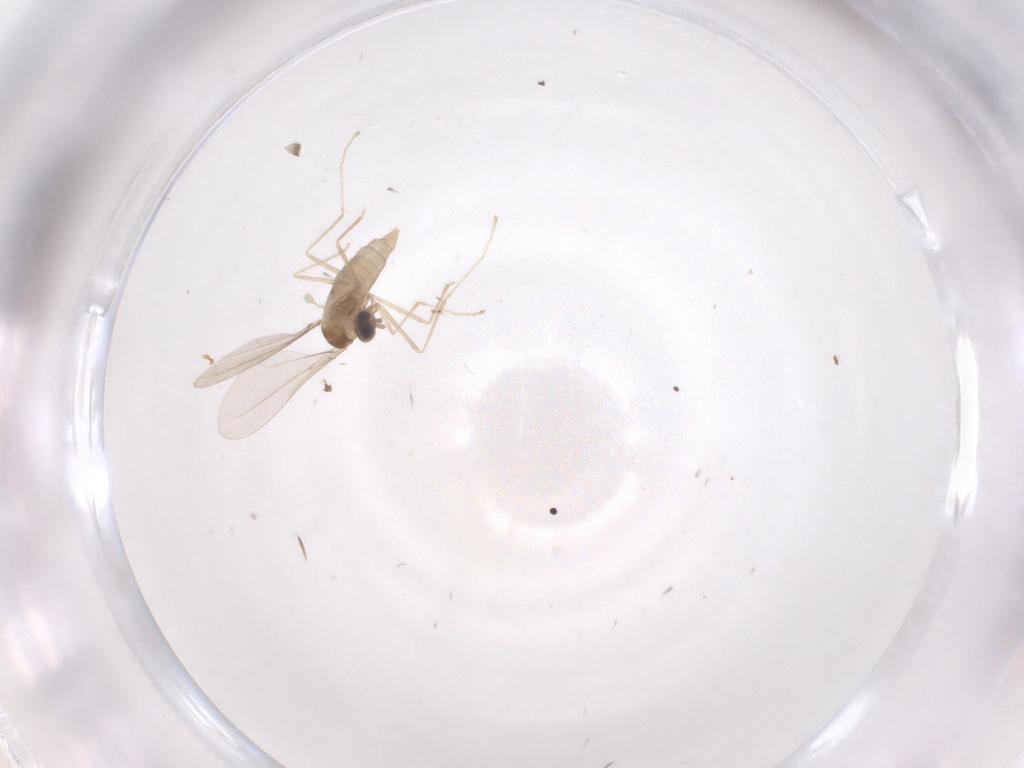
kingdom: Animalia
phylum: Arthropoda
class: Insecta
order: Diptera
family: Cecidomyiidae
